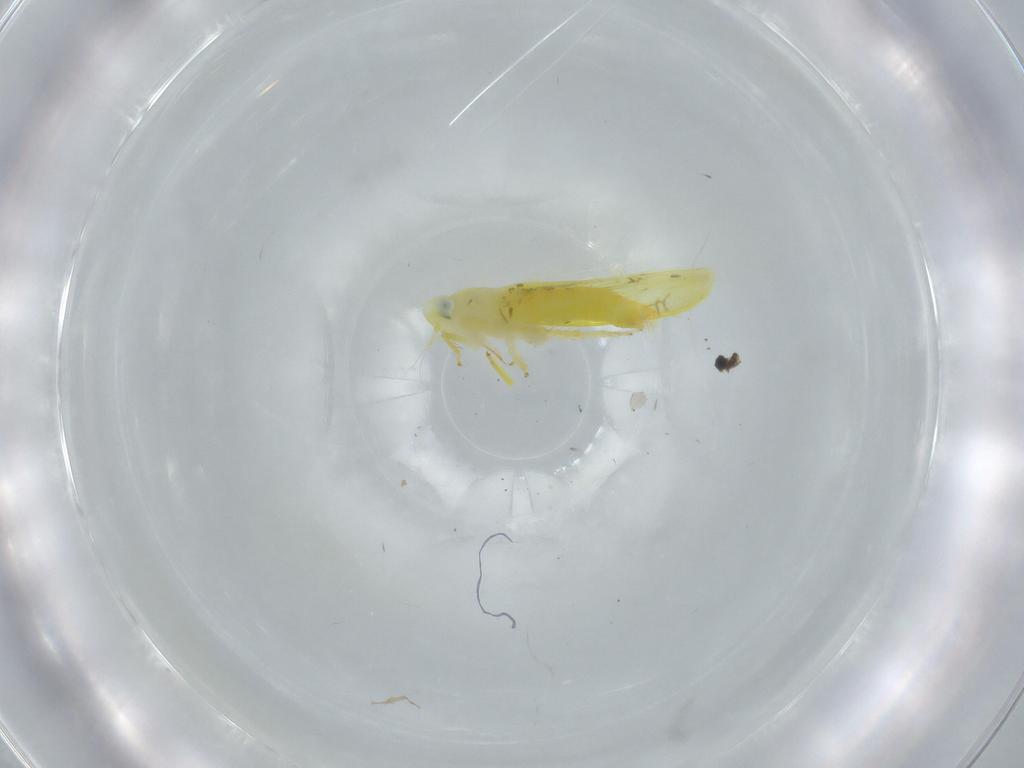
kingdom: Animalia
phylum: Arthropoda
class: Insecta
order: Hemiptera
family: Cicadellidae
